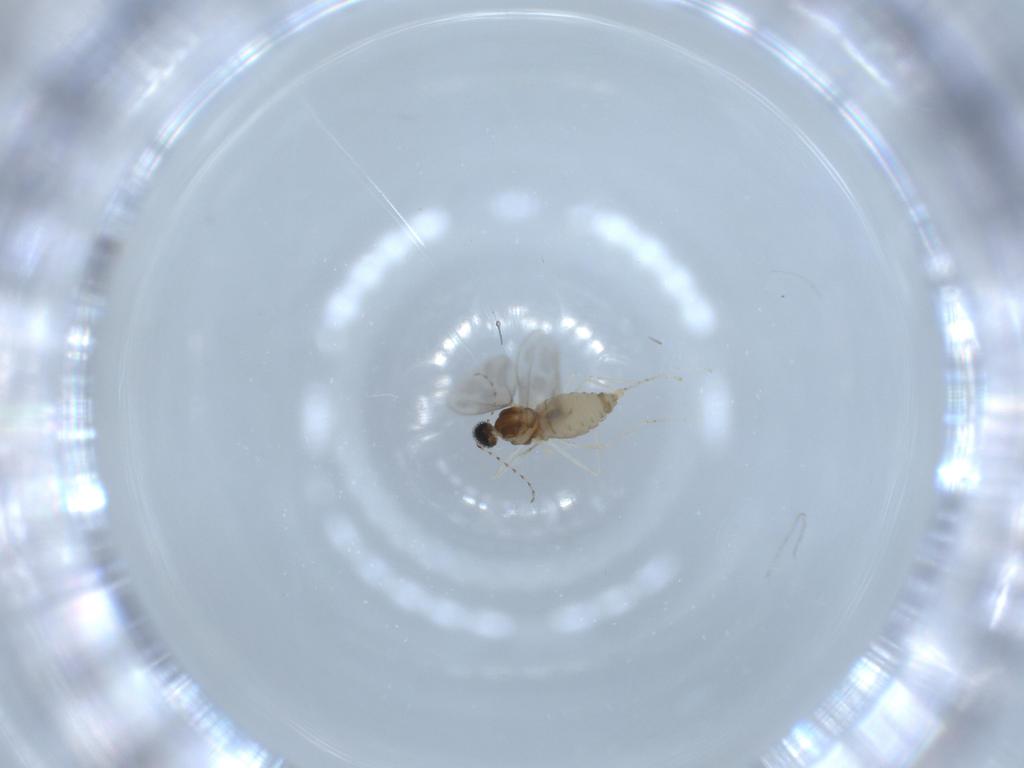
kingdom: Animalia
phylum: Arthropoda
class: Insecta
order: Diptera
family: Cecidomyiidae
